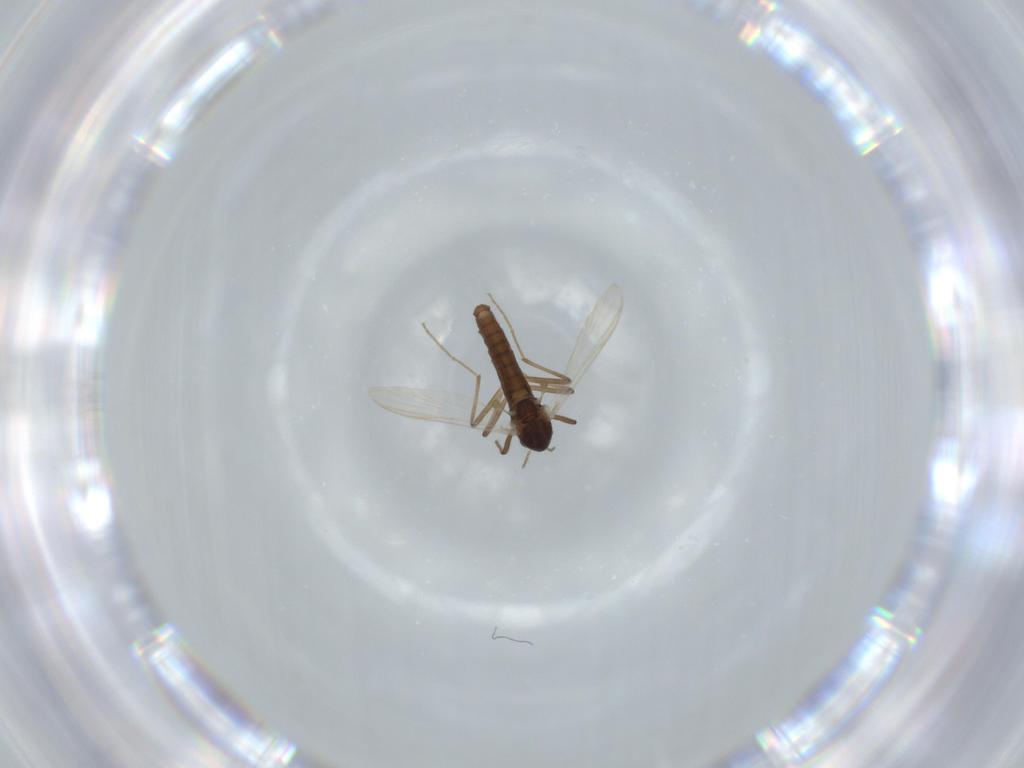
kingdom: Animalia
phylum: Arthropoda
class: Insecta
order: Diptera
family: Chironomidae
